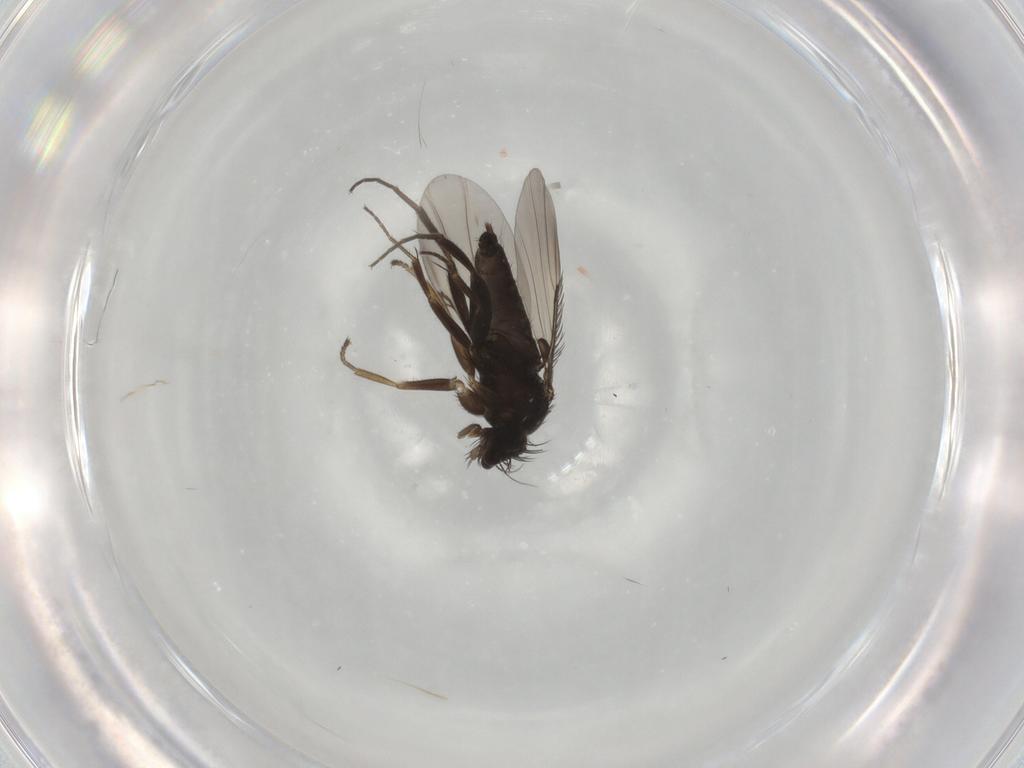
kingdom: Animalia
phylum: Arthropoda
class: Insecta
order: Diptera
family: Phoridae
